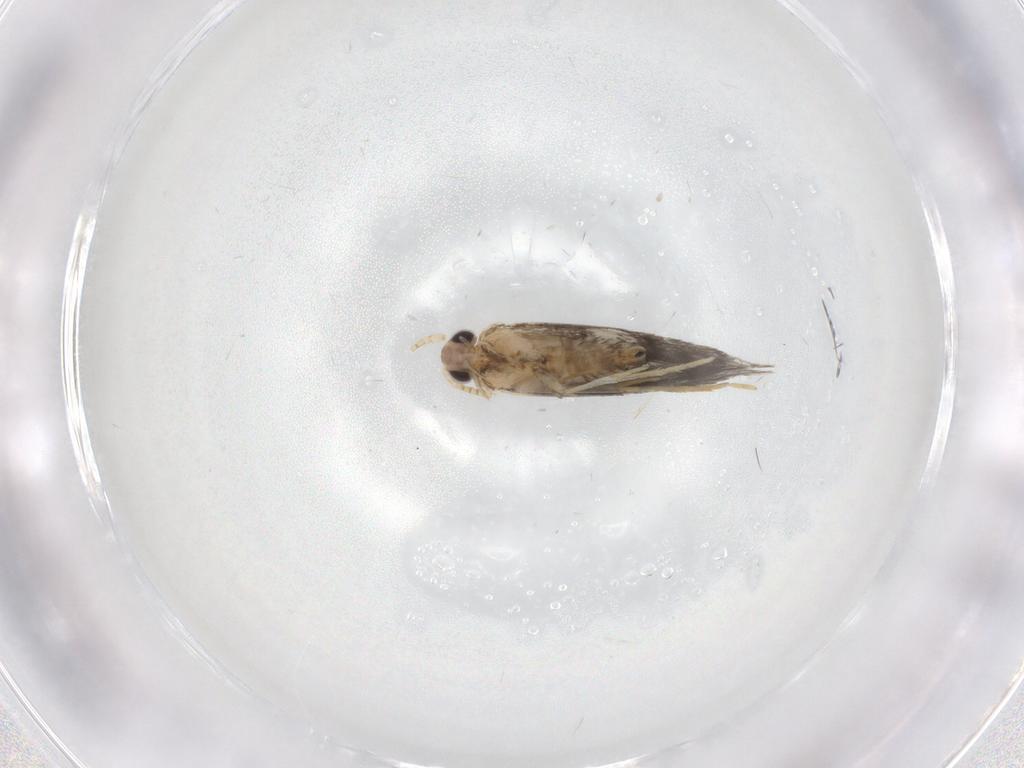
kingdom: Animalia
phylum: Arthropoda
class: Insecta
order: Lepidoptera
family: Tineidae
